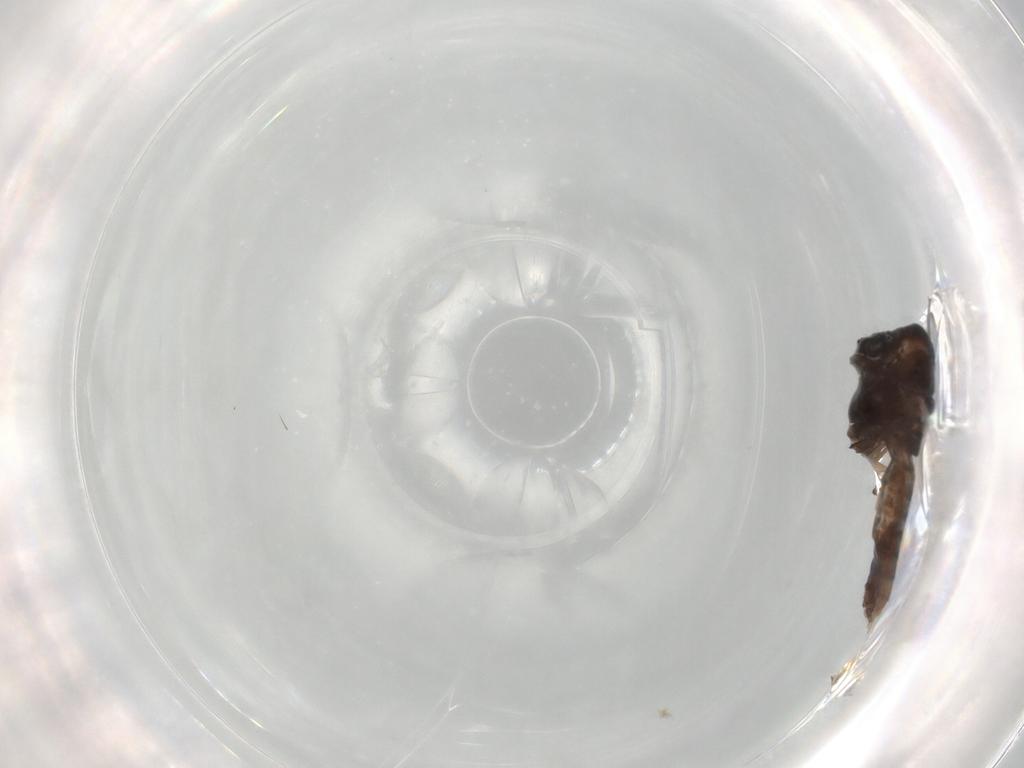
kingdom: Animalia
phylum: Arthropoda
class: Insecta
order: Diptera
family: Chironomidae
